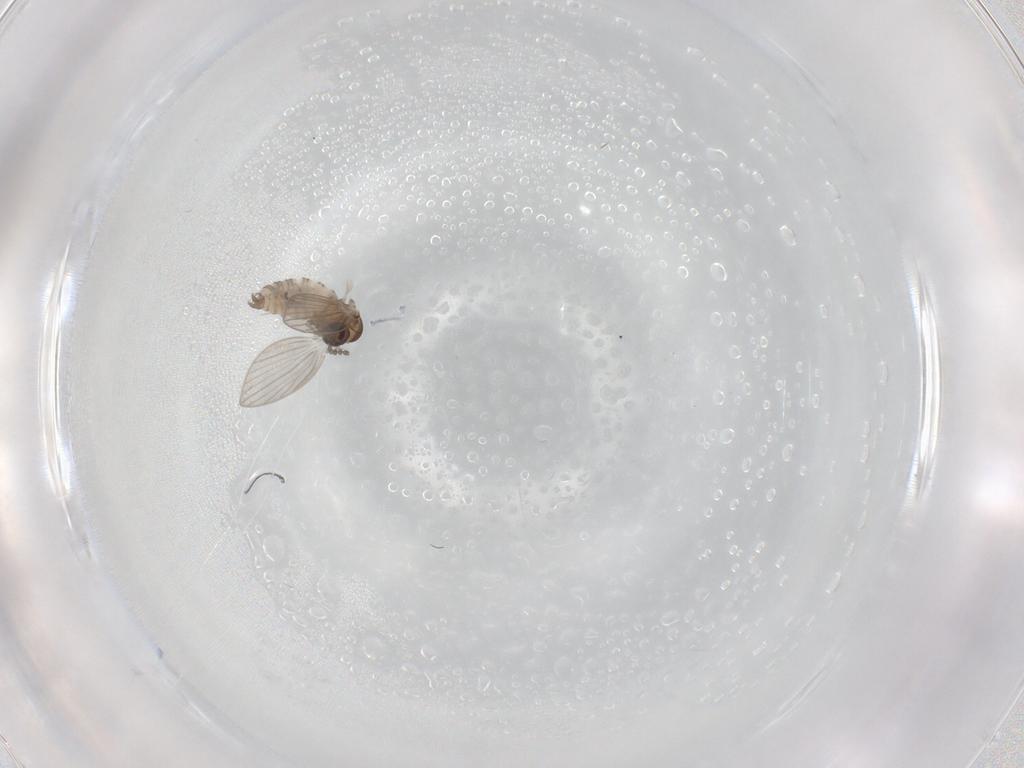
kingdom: Animalia
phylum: Arthropoda
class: Insecta
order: Diptera
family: Psychodidae
